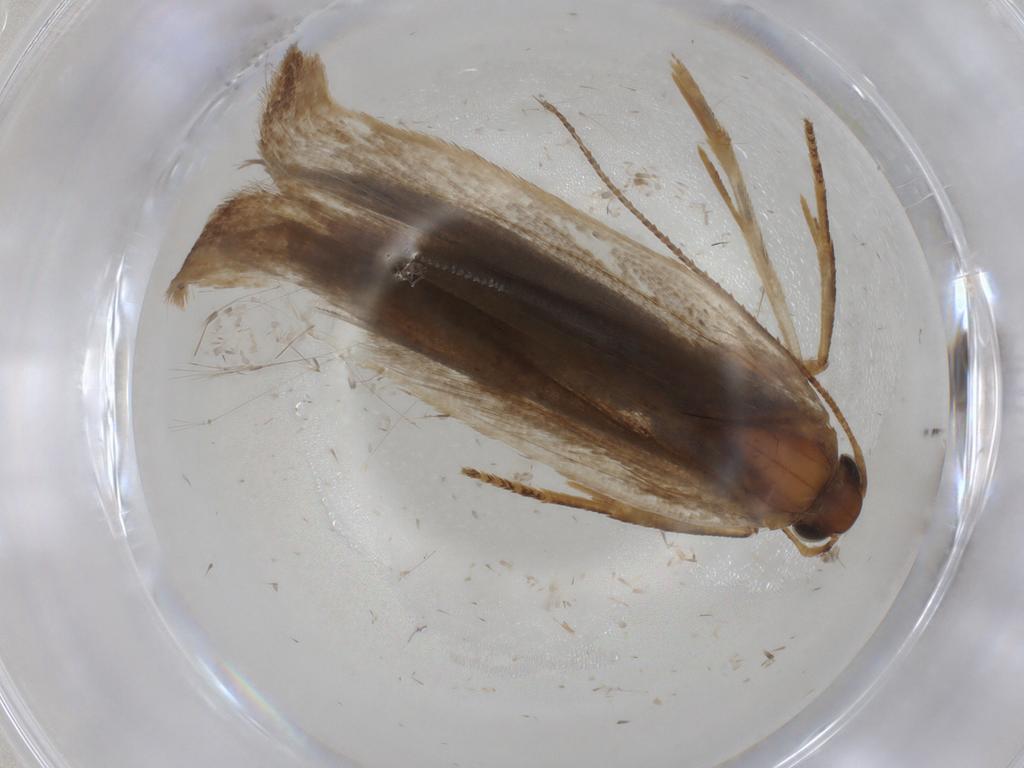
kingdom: Animalia
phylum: Arthropoda
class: Insecta
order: Lepidoptera
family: Gelechiidae
